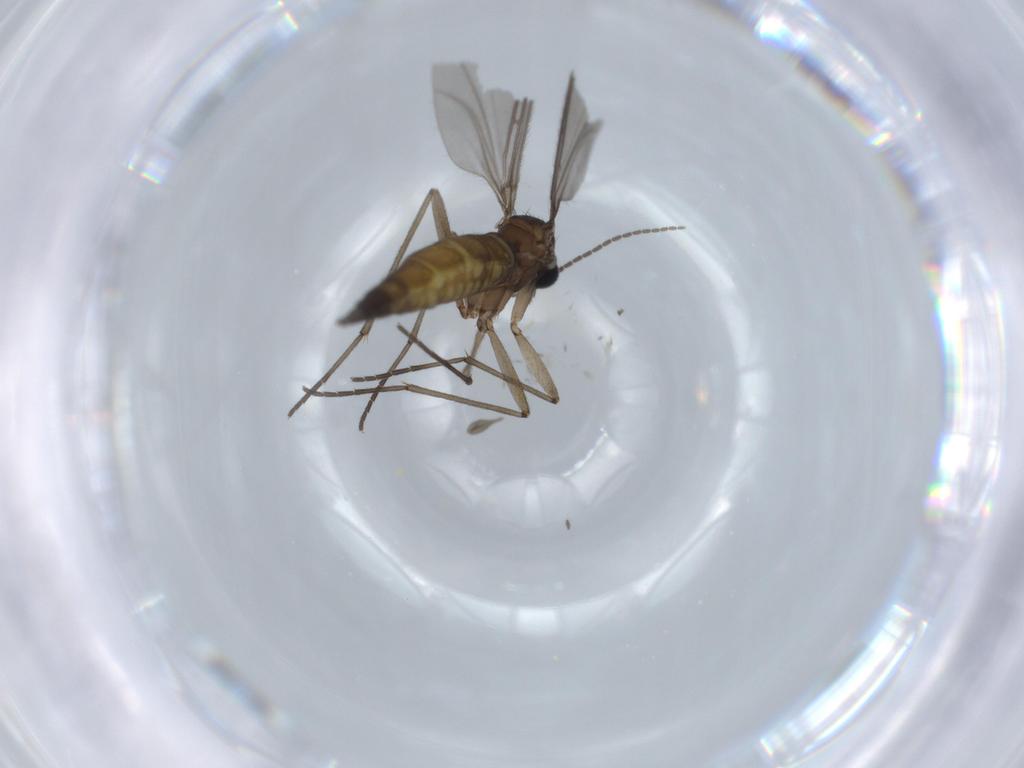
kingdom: Animalia
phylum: Arthropoda
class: Insecta
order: Diptera
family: Sciaridae
